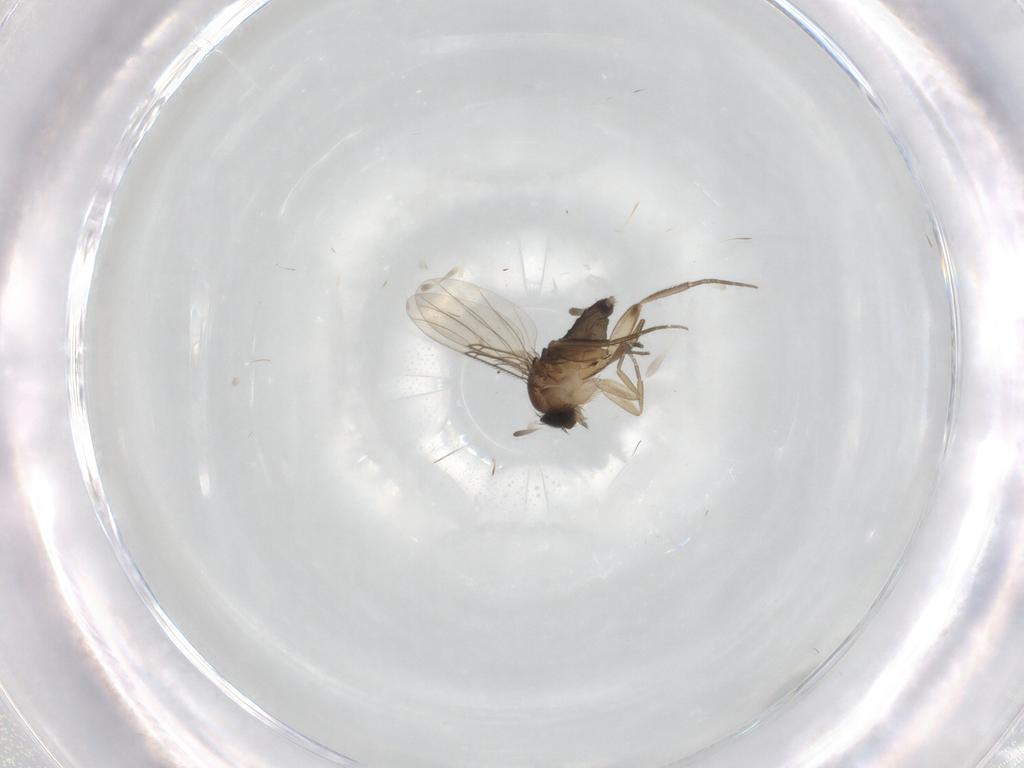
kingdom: Animalia
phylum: Arthropoda
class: Insecta
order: Diptera
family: Phoridae
